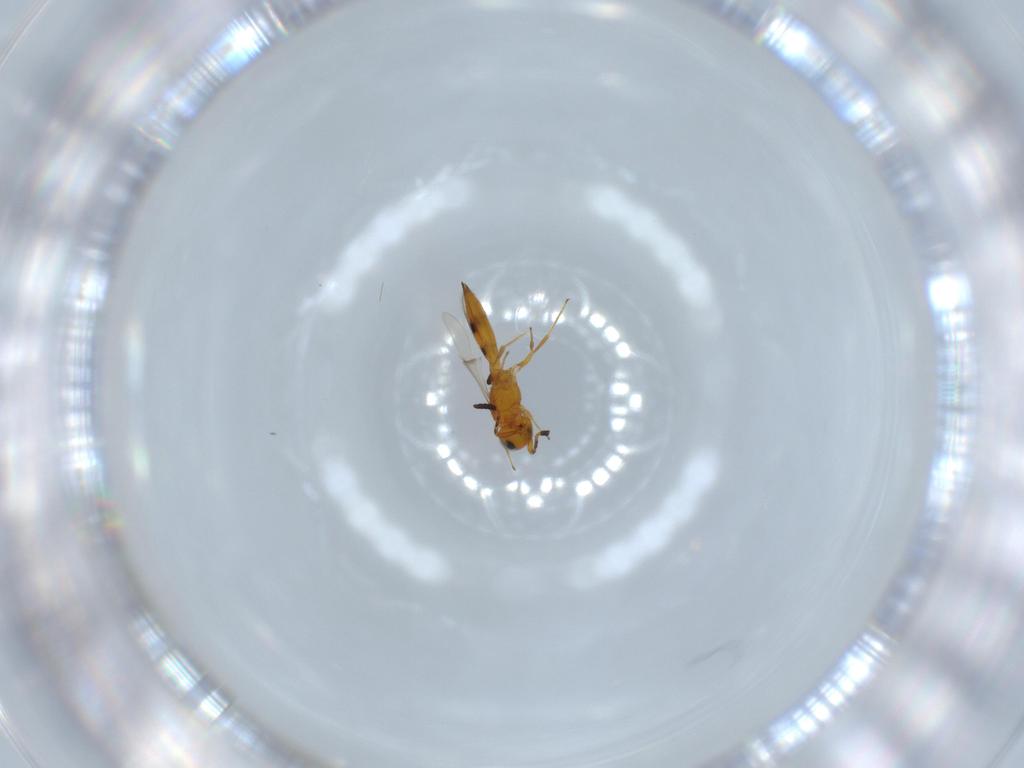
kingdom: Animalia
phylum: Arthropoda
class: Insecta
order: Hymenoptera
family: Scelionidae
